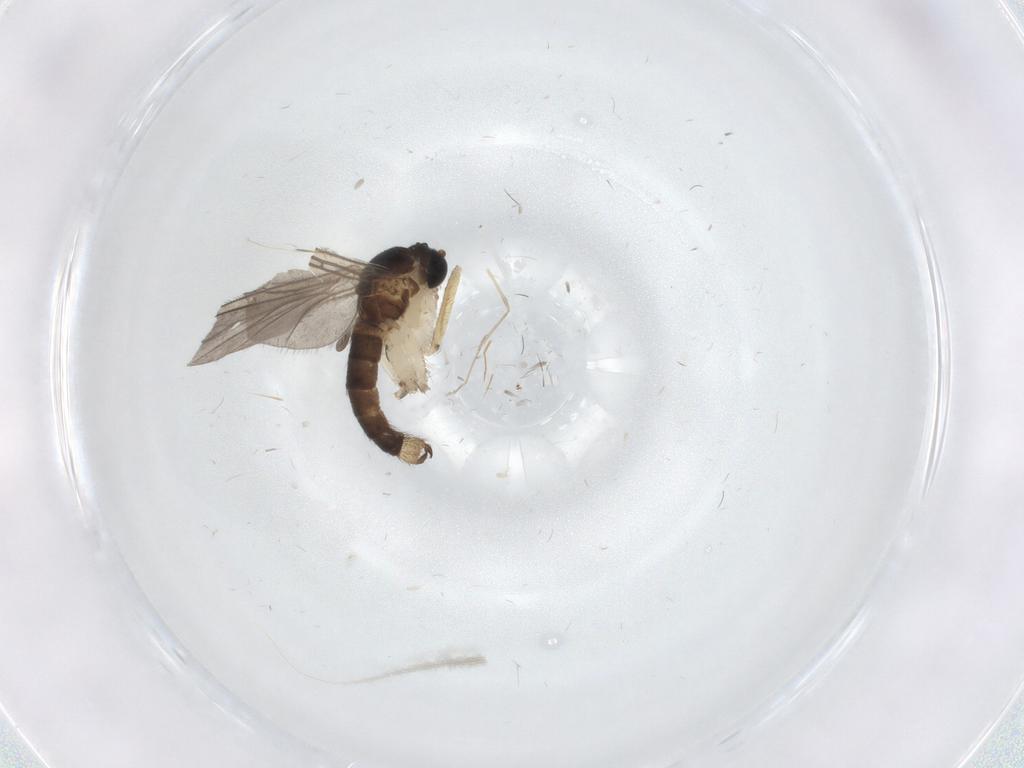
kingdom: Animalia
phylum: Arthropoda
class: Insecta
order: Diptera
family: Sciaridae
